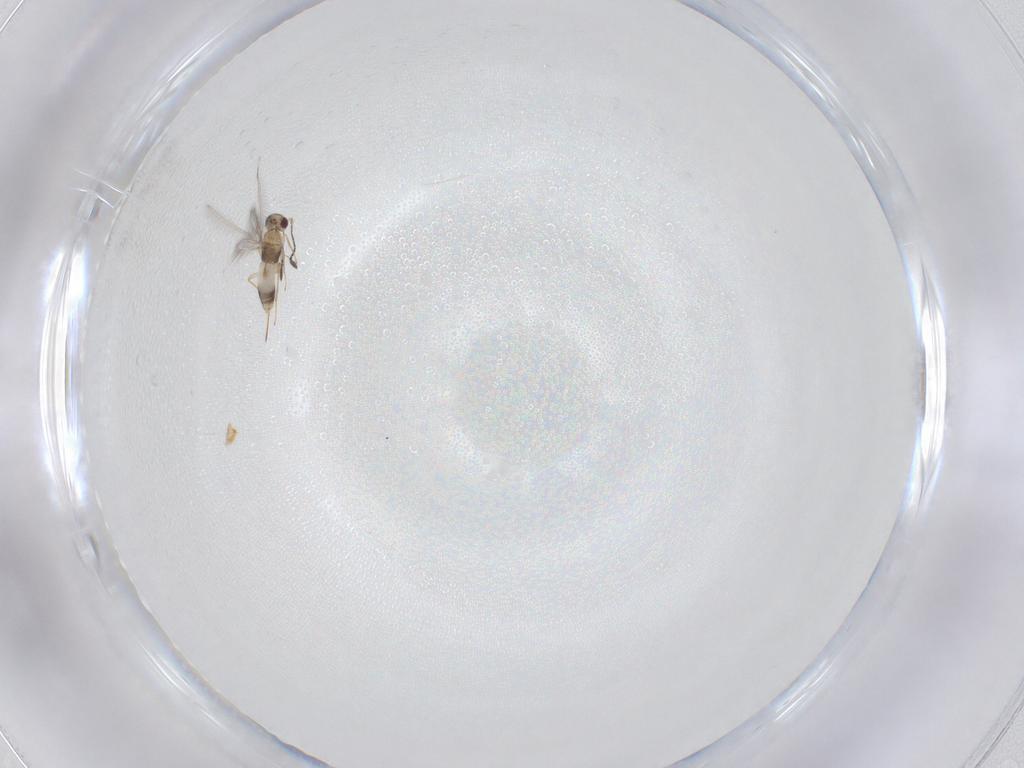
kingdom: Animalia
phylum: Arthropoda
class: Insecta
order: Hymenoptera
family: Mymaridae
